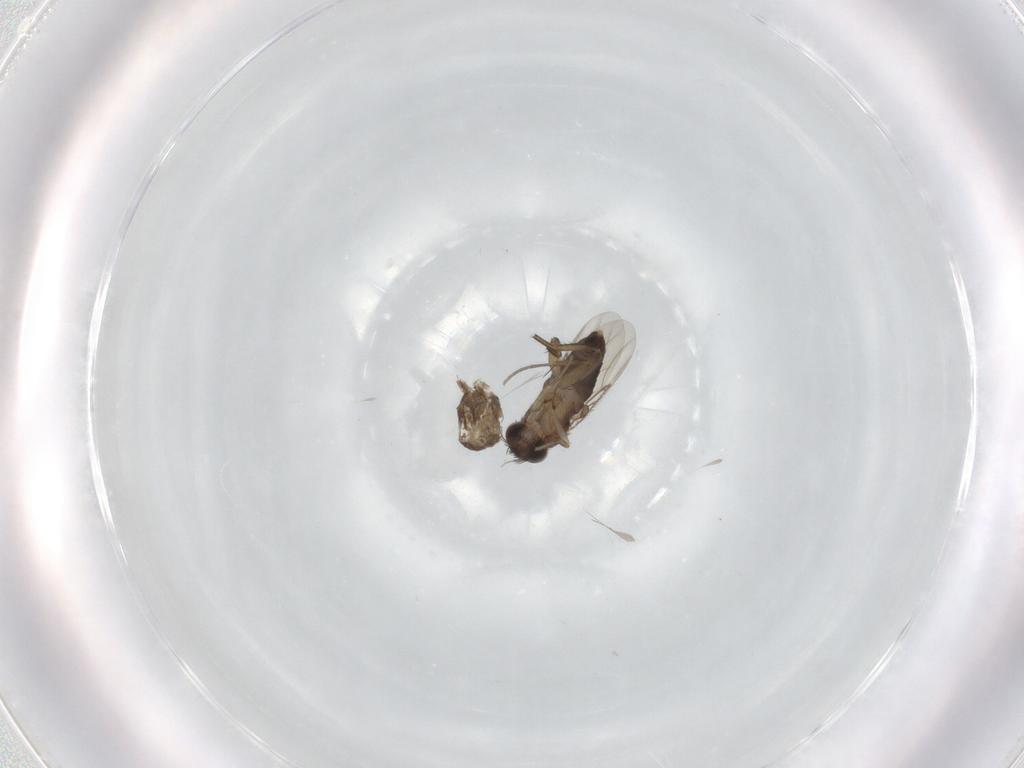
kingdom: Animalia
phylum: Arthropoda
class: Insecta
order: Diptera
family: Phoridae
